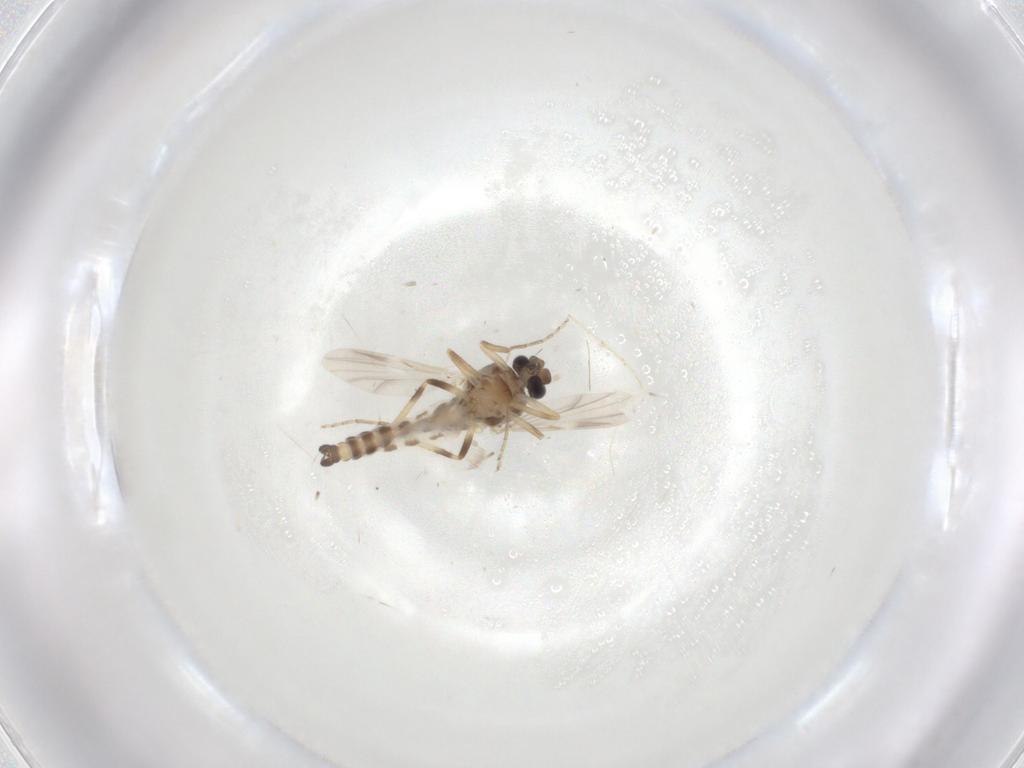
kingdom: Animalia
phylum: Arthropoda
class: Insecta
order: Diptera
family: Ceratopogonidae
